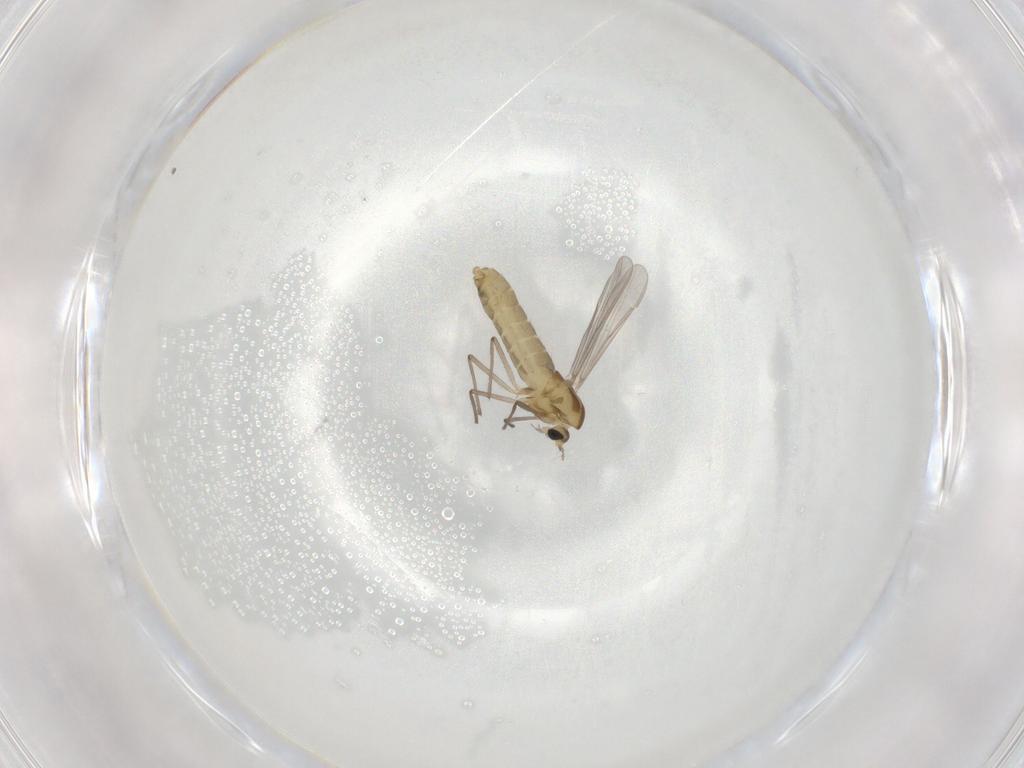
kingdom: Animalia
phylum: Arthropoda
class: Insecta
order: Diptera
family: Chironomidae
